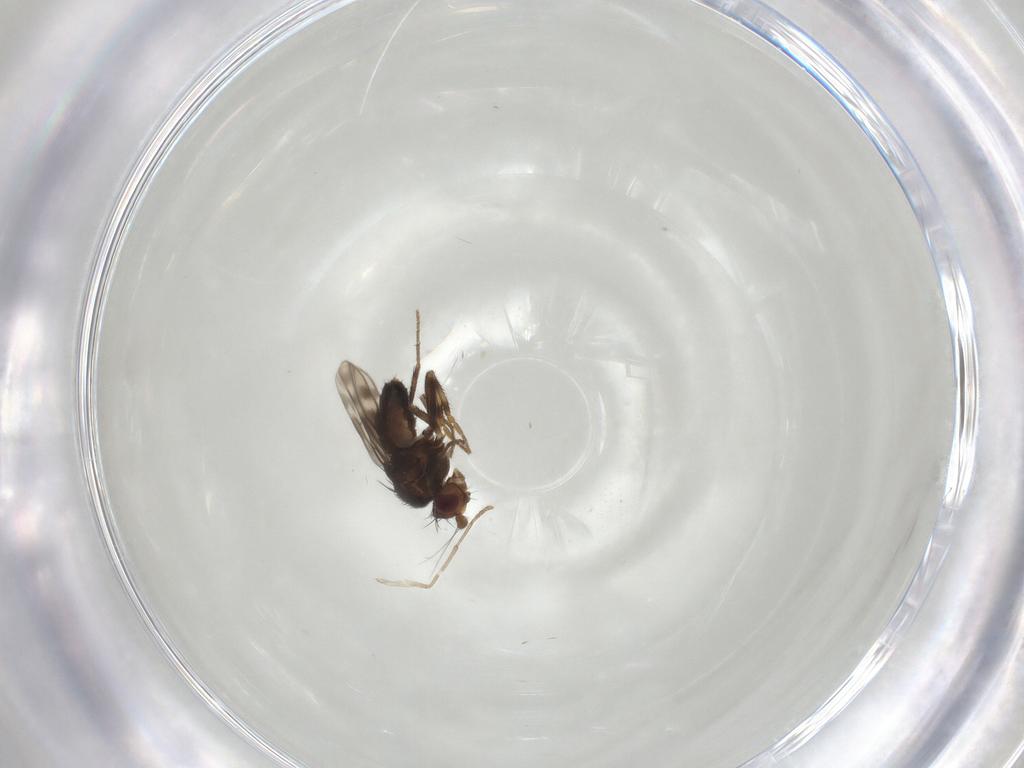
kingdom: Animalia
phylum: Arthropoda
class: Insecta
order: Diptera
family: Sphaeroceridae
